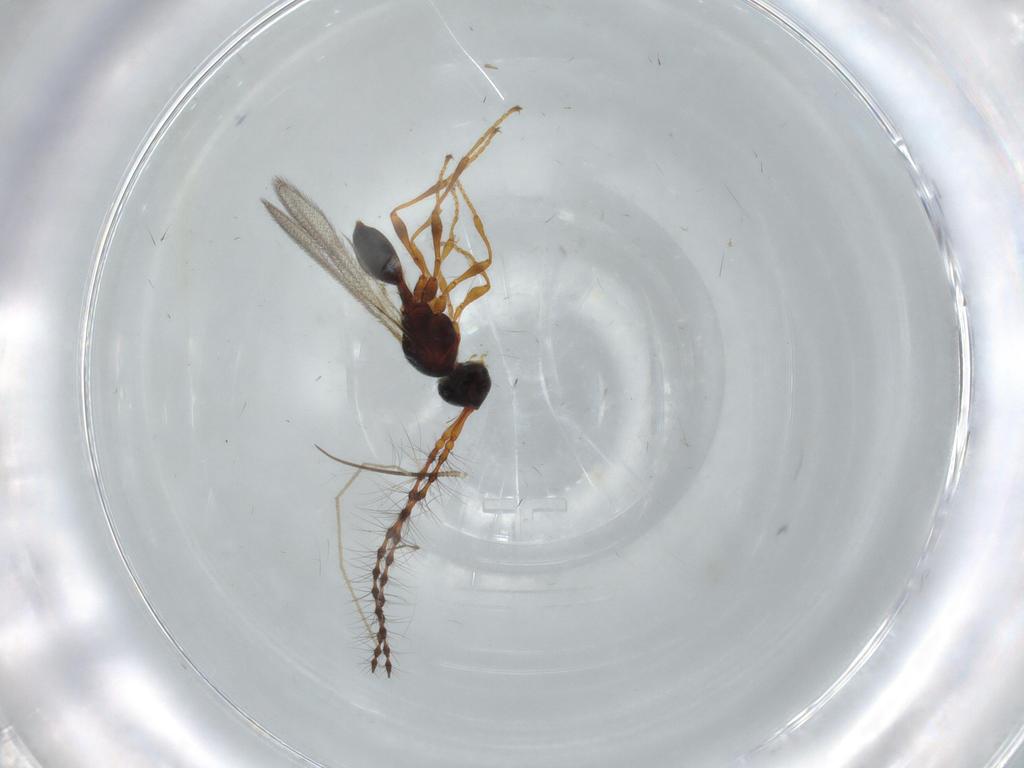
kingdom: Animalia
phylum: Arthropoda
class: Insecta
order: Hymenoptera
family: Diapriidae
